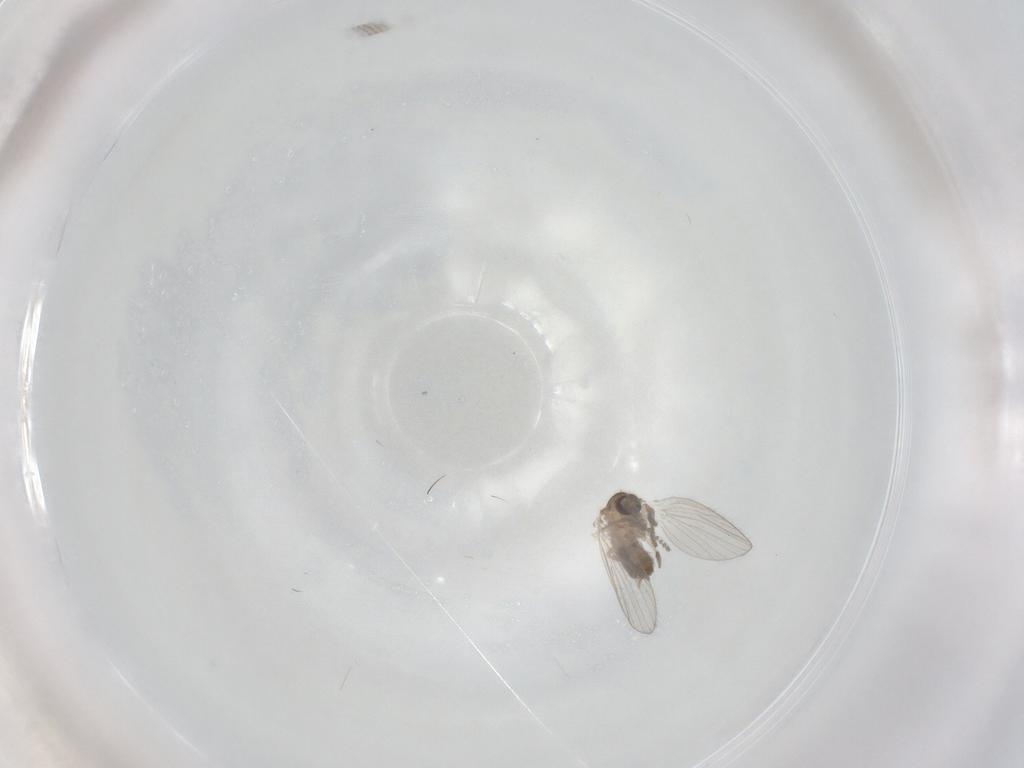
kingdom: Animalia
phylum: Arthropoda
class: Insecta
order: Diptera
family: Psychodidae
